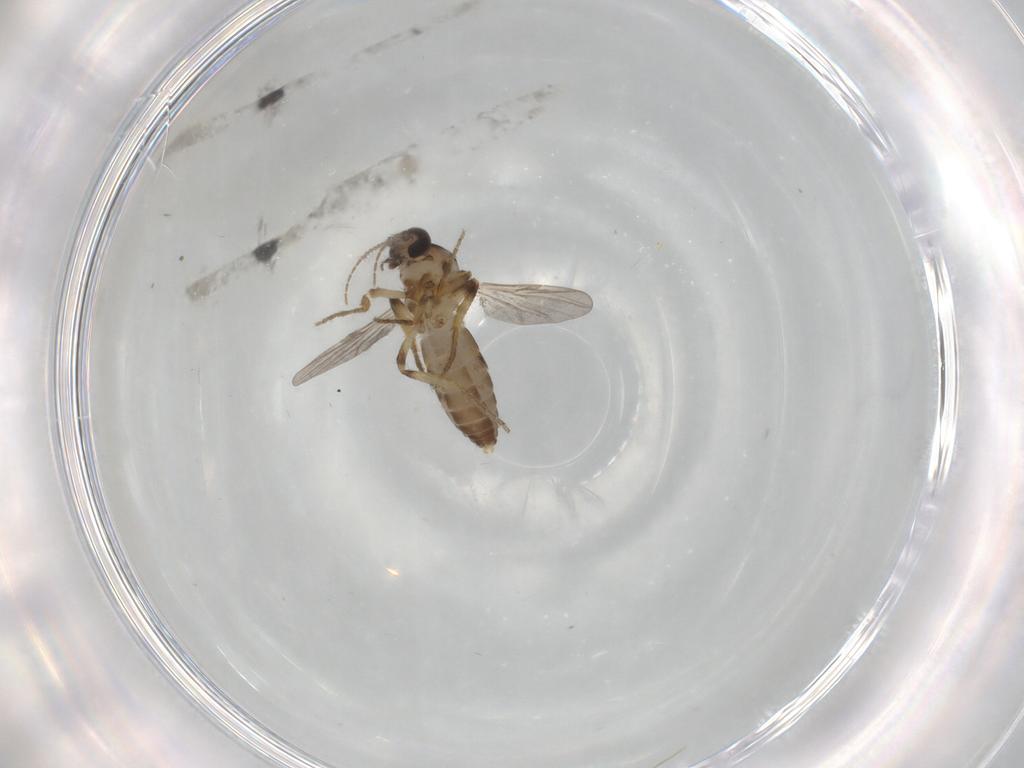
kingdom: Animalia
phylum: Arthropoda
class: Insecta
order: Diptera
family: Ceratopogonidae
